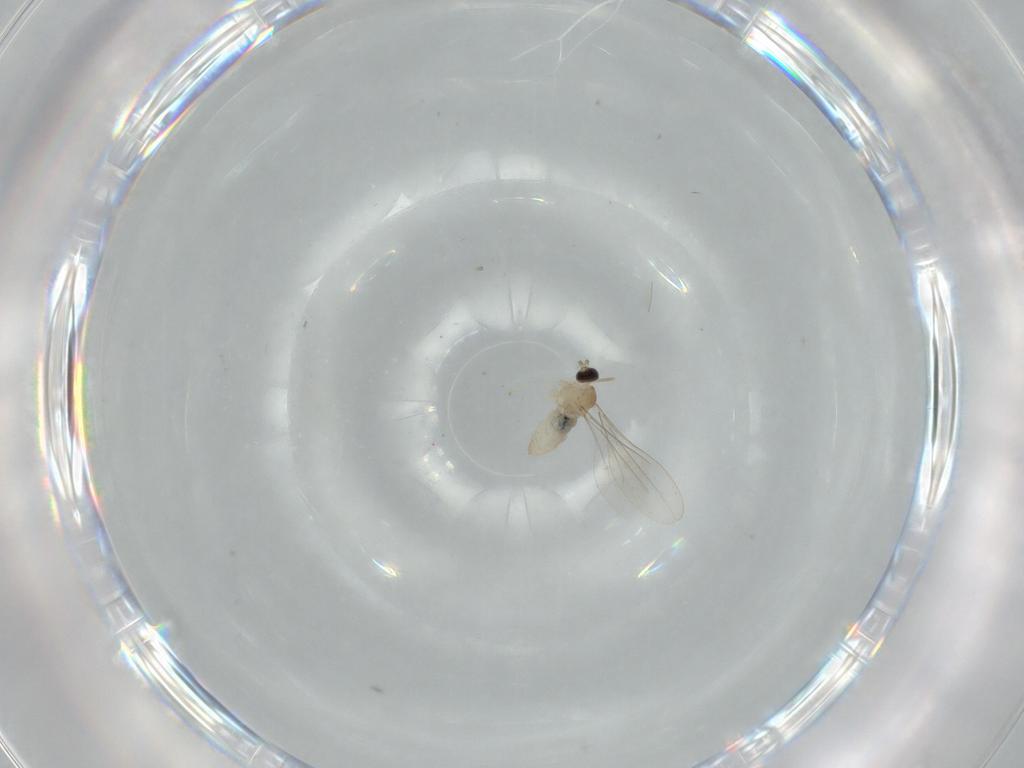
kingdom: Animalia
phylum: Arthropoda
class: Insecta
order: Diptera
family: Cecidomyiidae
